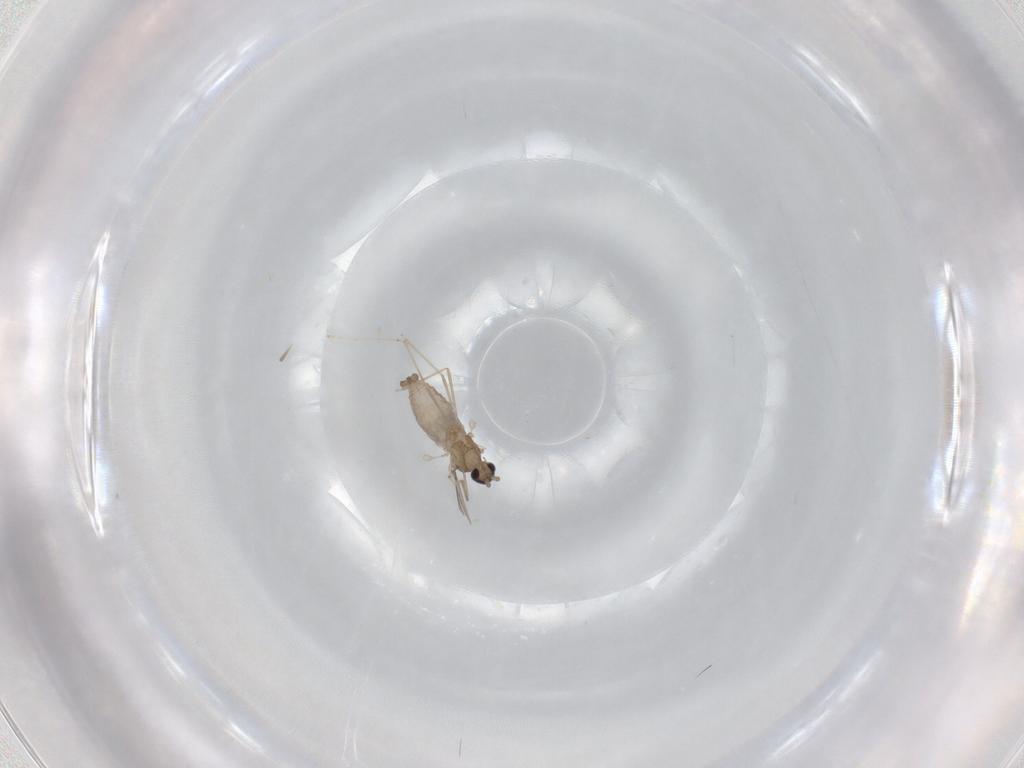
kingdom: Animalia
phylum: Arthropoda
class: Insecta
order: Diptera
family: Cecidomyiidae
